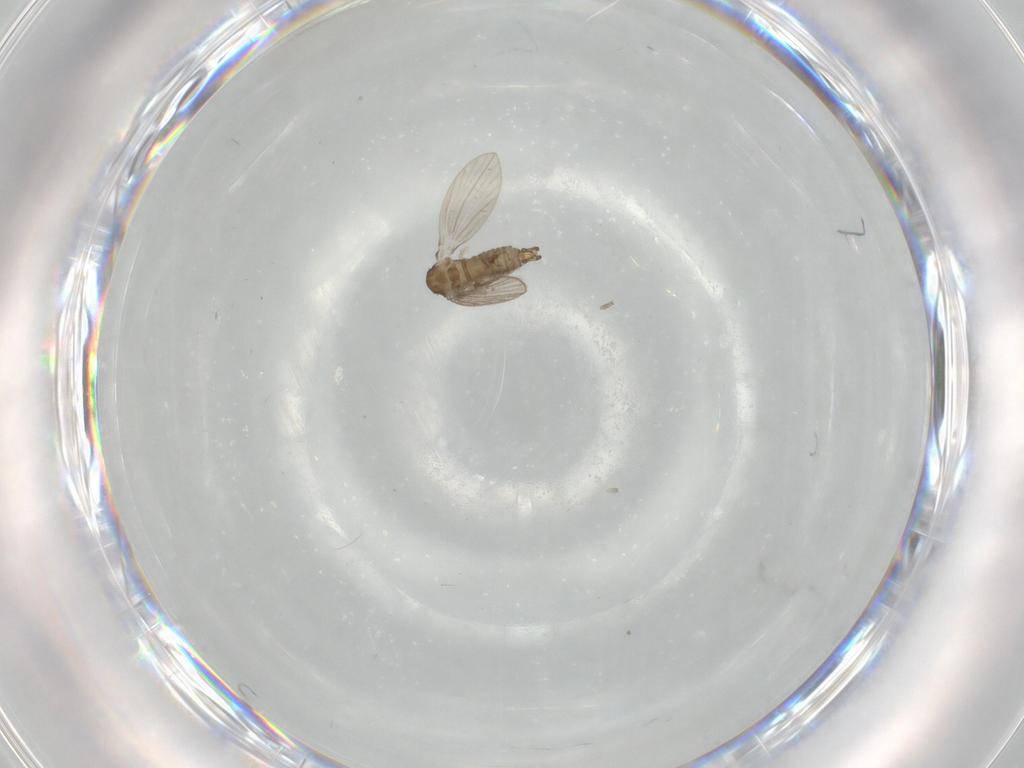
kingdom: Animalia
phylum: Arthropoda
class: Insecta
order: Diptera
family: Psychodidae
